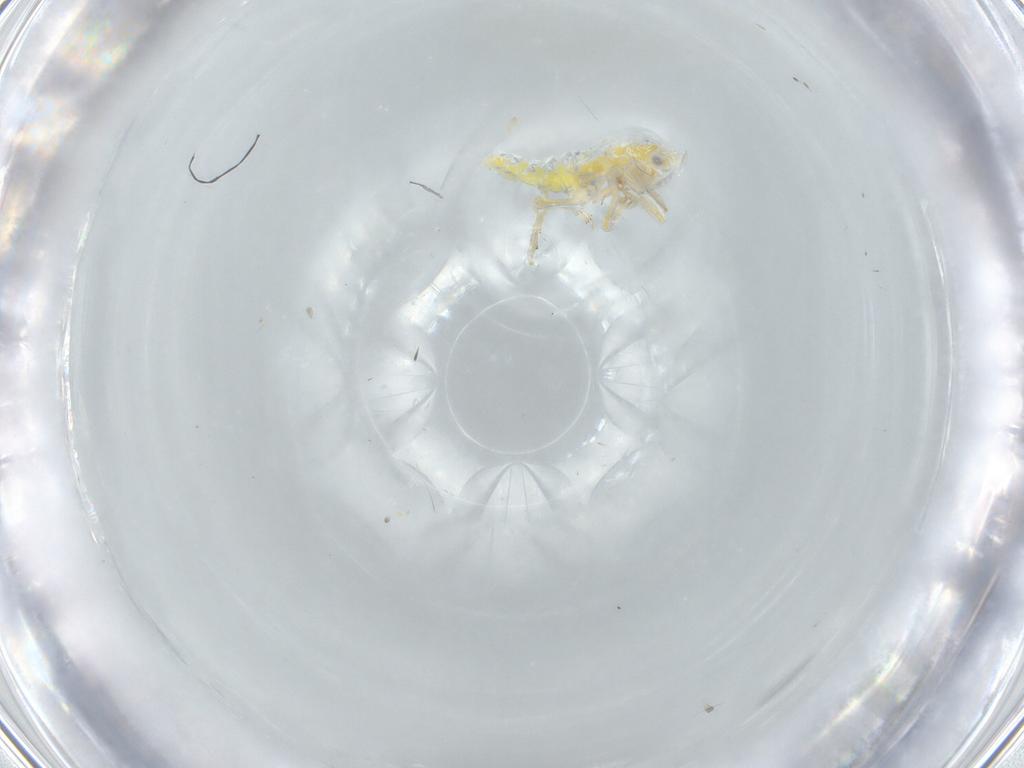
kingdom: Animalia
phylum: Arthropoda
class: Insecta
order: Hemiptera
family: Tropiduchidae
